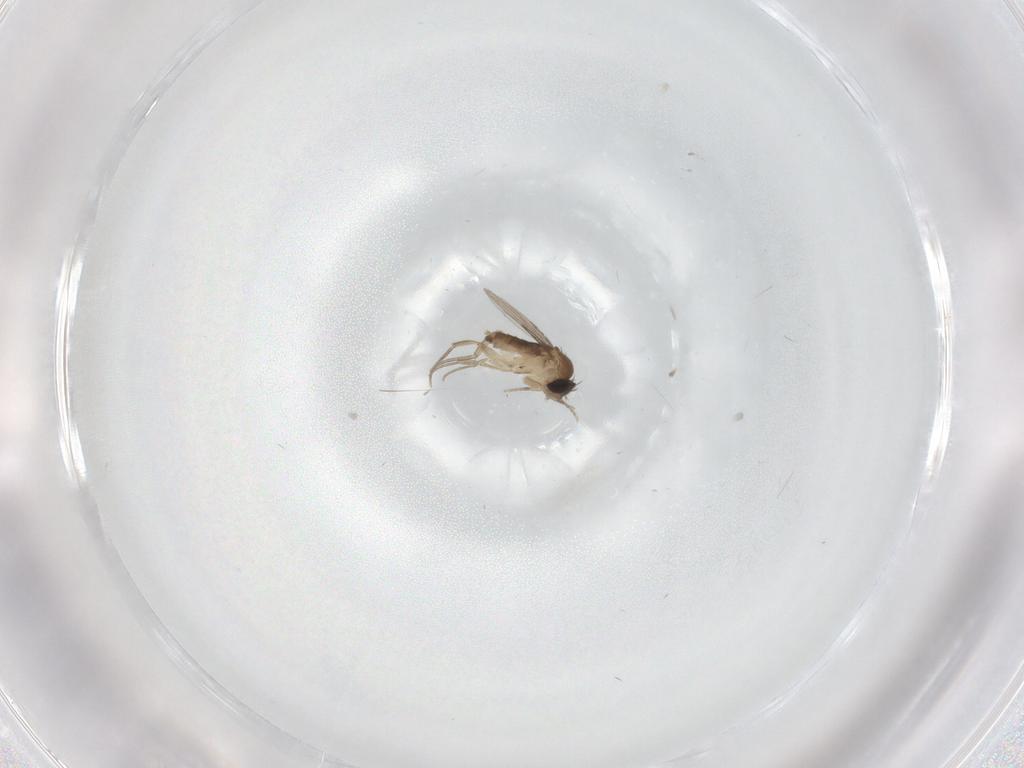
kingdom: Animalia
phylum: Arthropoda
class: Insecta
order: Diptera
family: Phoridae
